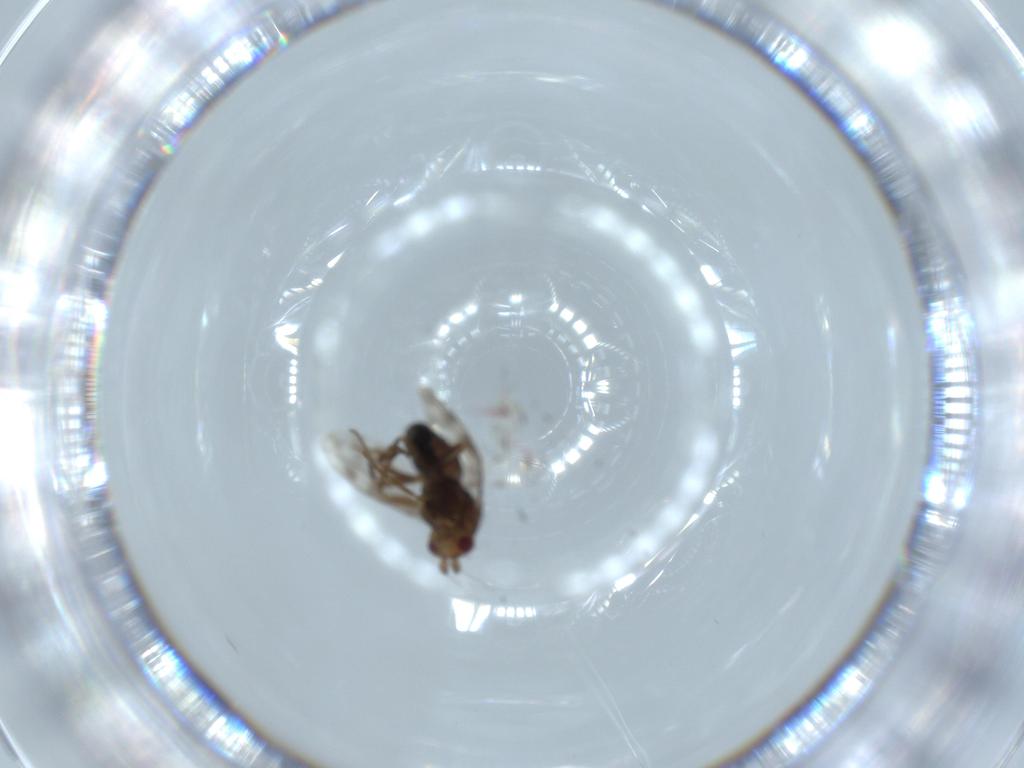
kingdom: Animalia
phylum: Arthropoda
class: Insecta
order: Diptera
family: Sphaeroceridae
